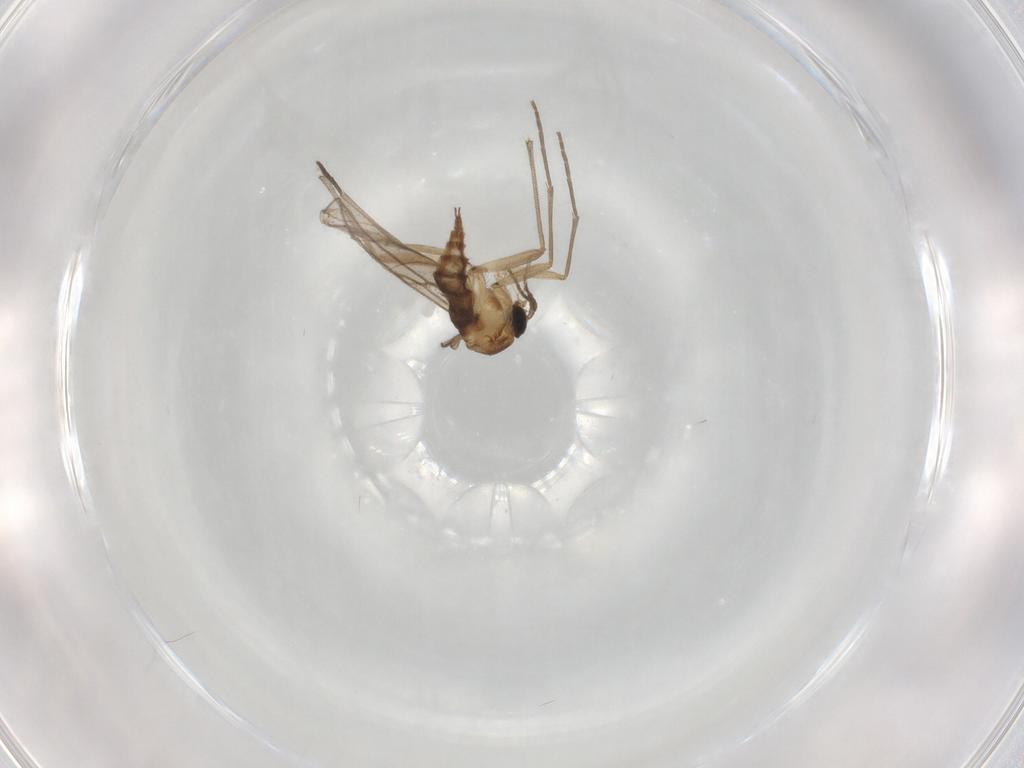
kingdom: Animalia
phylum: Arthropoda
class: Insecta
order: Diptera
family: Sciaridae
